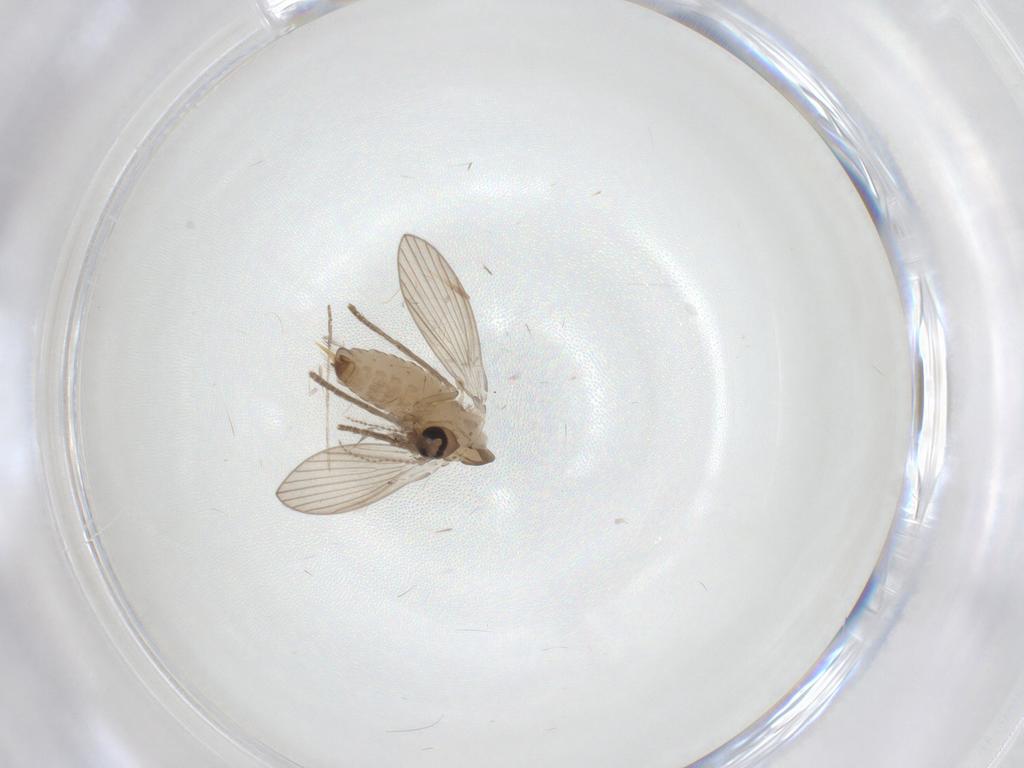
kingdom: Animalia
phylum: Arthropoda
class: Insecta
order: Diptera
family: Psychodidae
